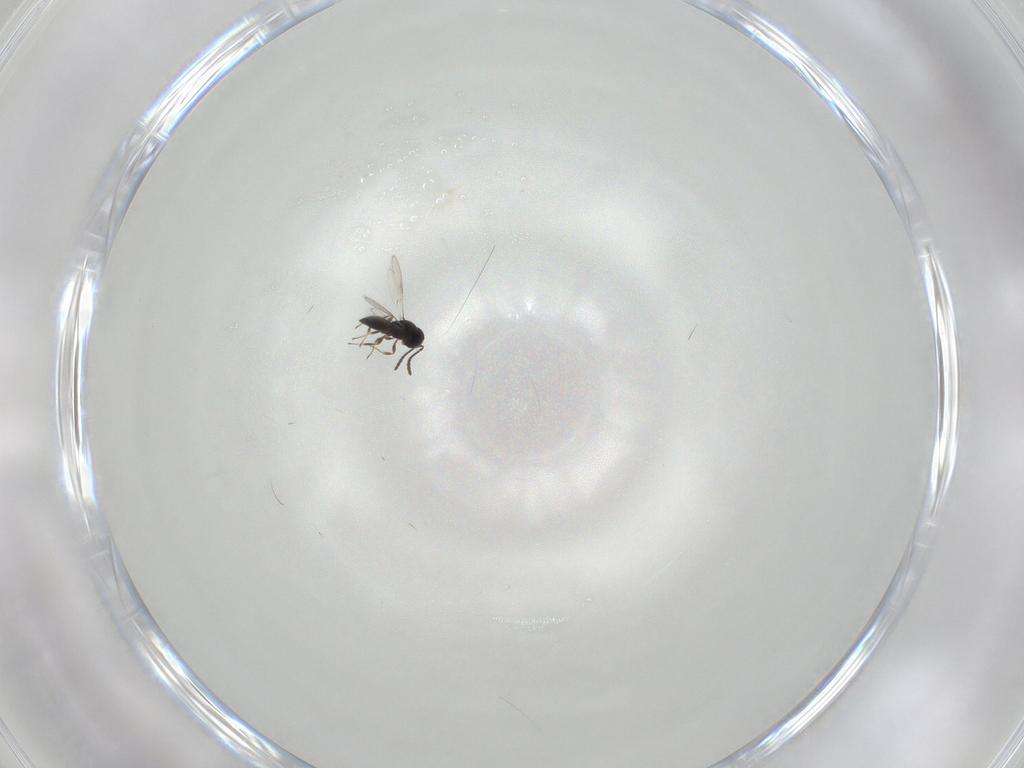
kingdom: Animalia
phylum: Arthropoda
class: Insecta
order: Hymenoptera
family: Scelionidae
